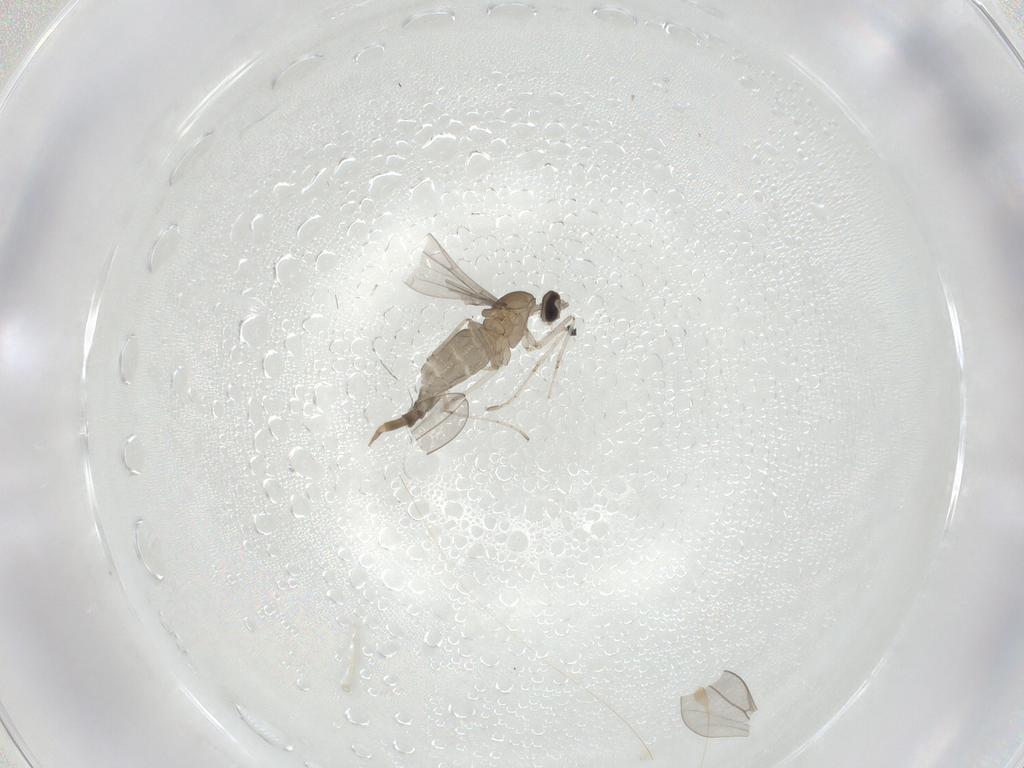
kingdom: Animalia
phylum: Arthropoda
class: Insecta
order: Diptera
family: Cecidomyiidae
